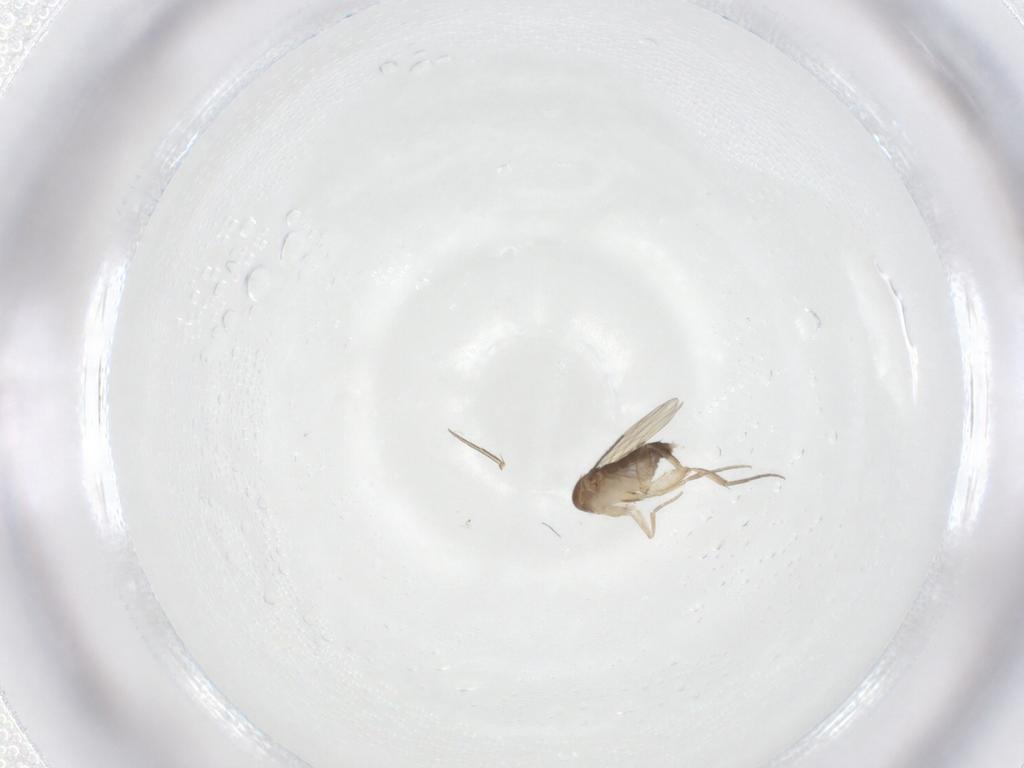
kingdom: Animalia
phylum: Arthropoda
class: Insecta
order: Diptera
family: Phoridae
